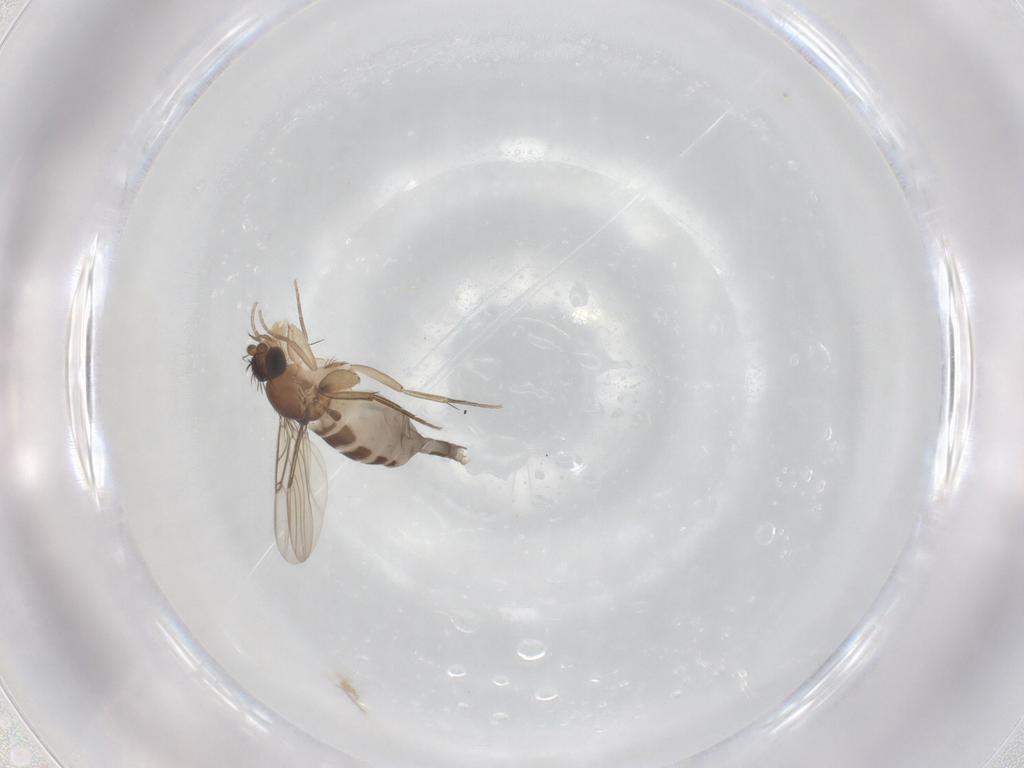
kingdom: Animalia
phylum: Arthropoda
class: Insecta
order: Diptera
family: Phoridae
